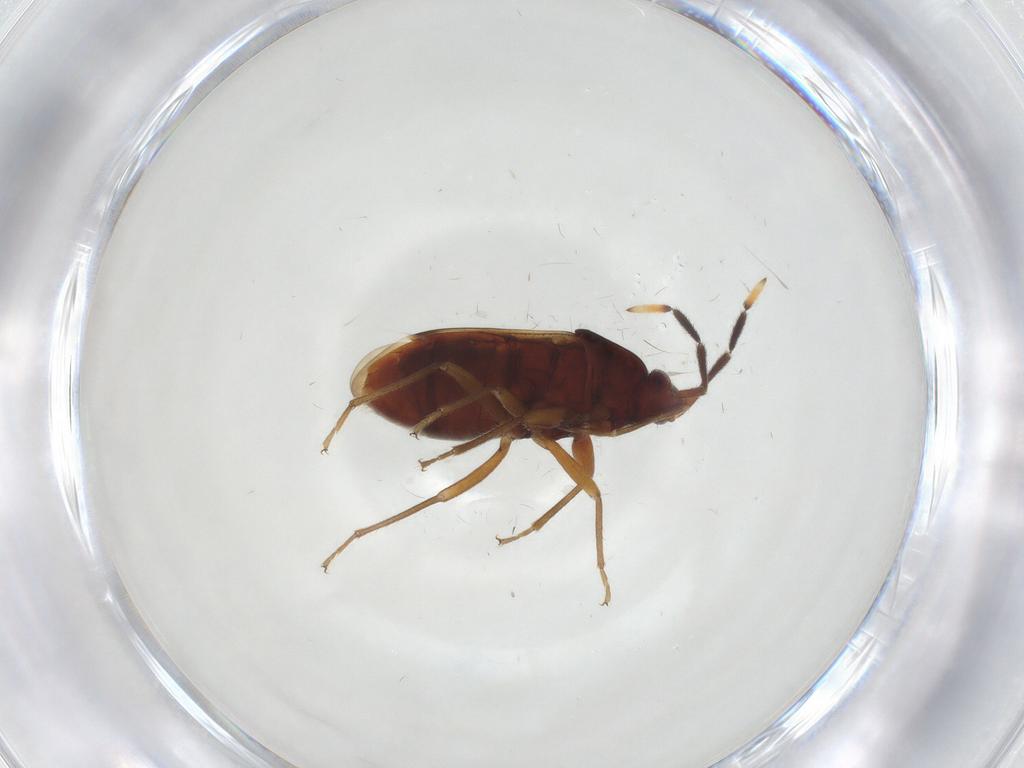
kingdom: Animalia
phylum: Arthropoda
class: Insecta
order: Hemiptera
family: Rhyparochromidae
